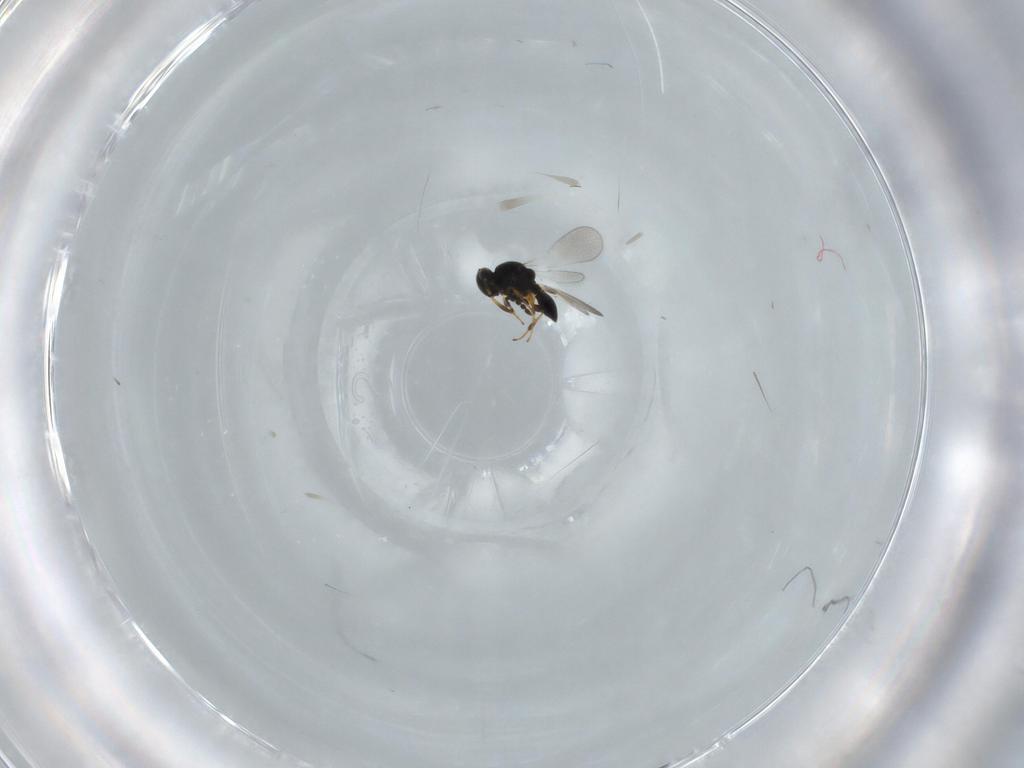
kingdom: Animalia
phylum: Arthropoda
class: Insecta
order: Hymenoptera
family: Platygastridae
